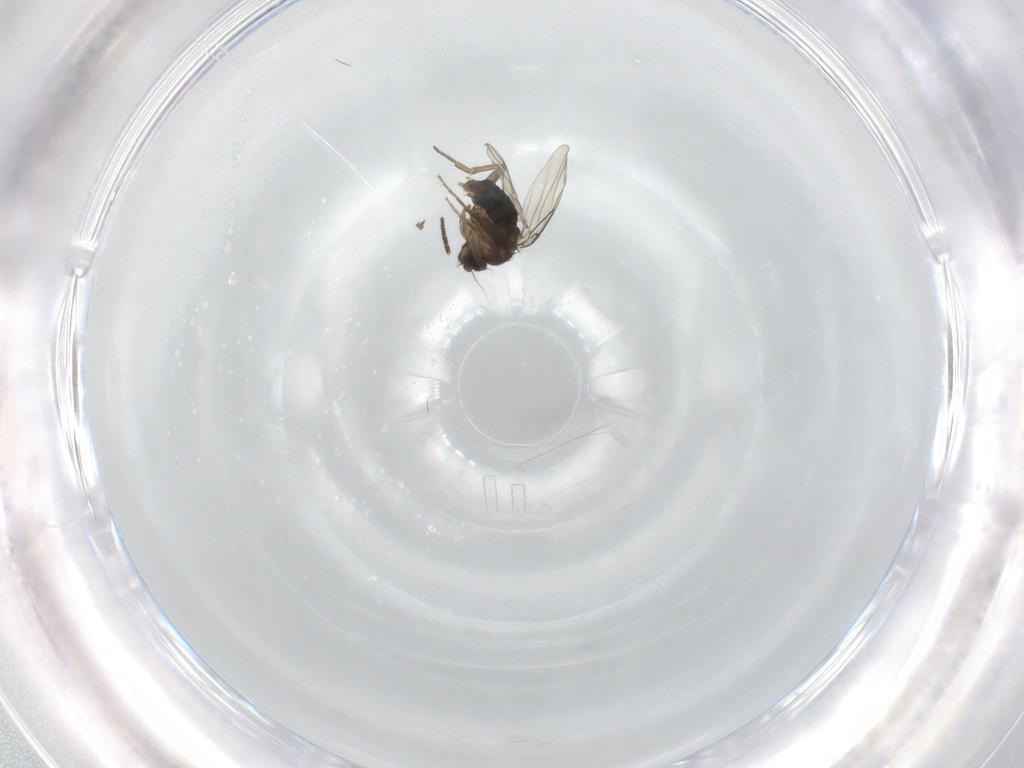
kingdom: Animalia
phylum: Arthropoda
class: Insecta
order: Diptera
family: Phoridae
